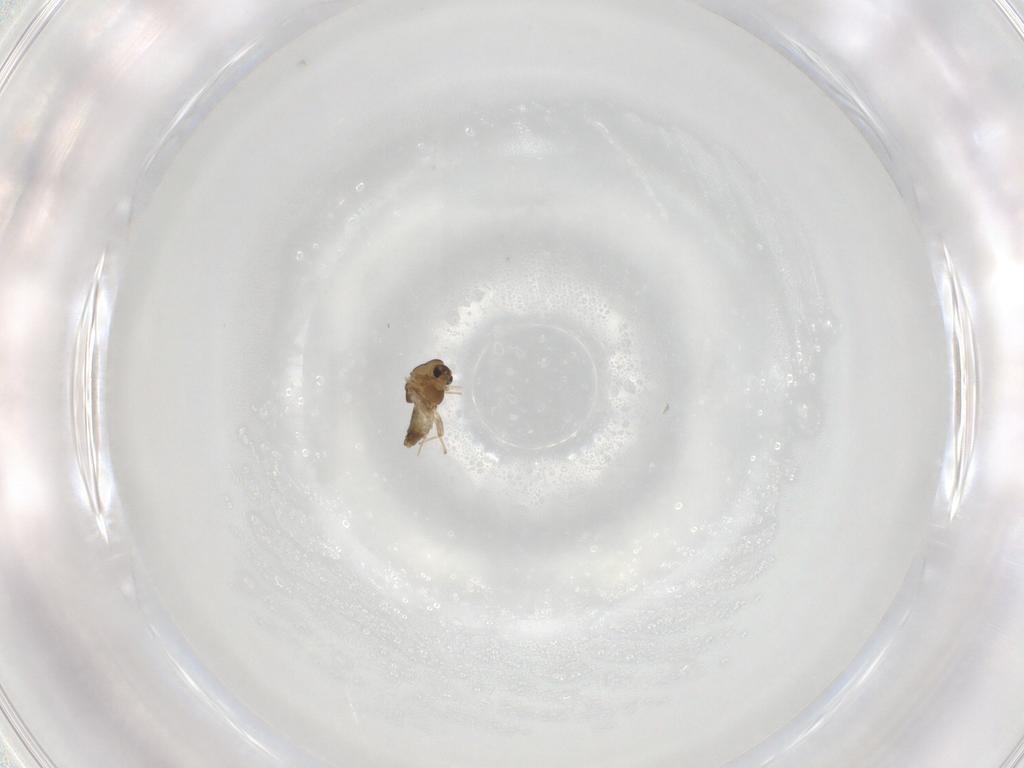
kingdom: Animalia
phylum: Arthropoda
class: Insecta
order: Diptera
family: Chironomidae
